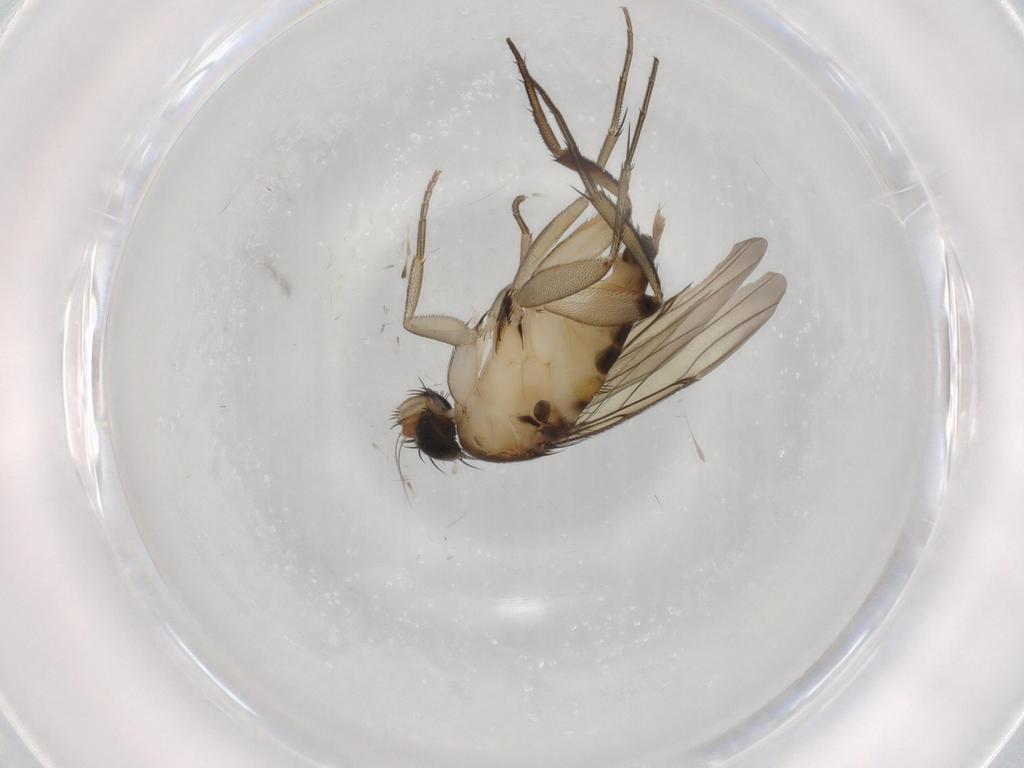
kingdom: Animalia
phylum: Arthropoda
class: Insecta
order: Diptera
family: Phoridae
